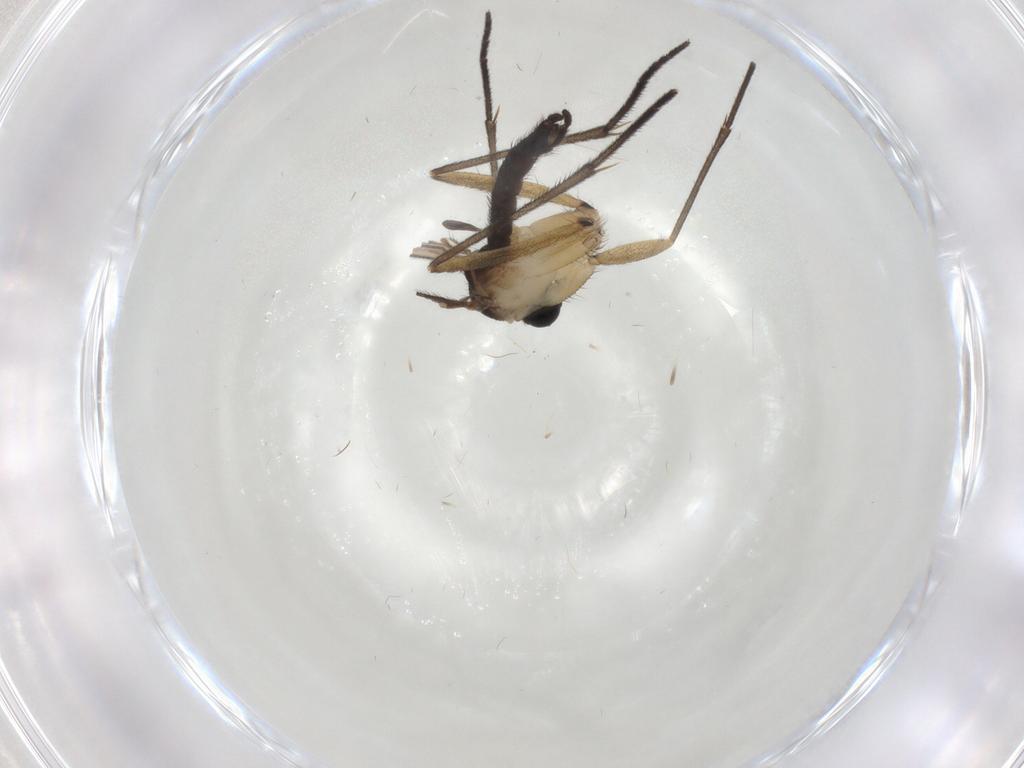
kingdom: Animalia
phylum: Arthropoda
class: Insecta
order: Diptera
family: Sciaridae
